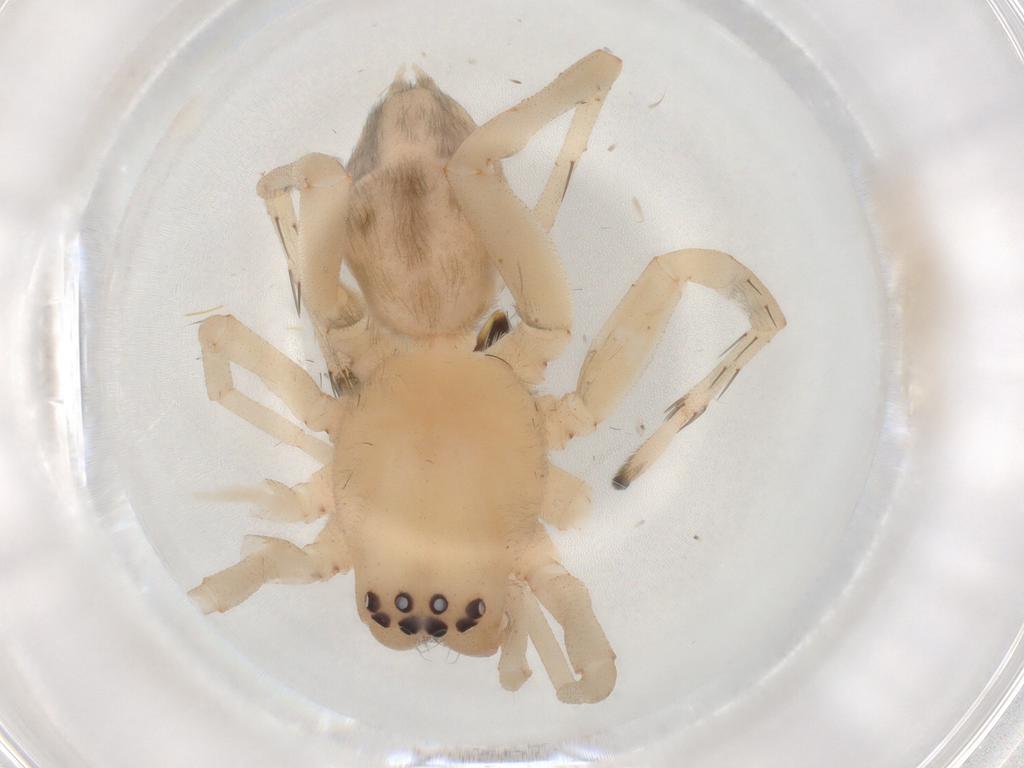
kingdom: Animalia
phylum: Arthropoda
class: Arachnida
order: Araneae
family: Cheiracanthiidae
